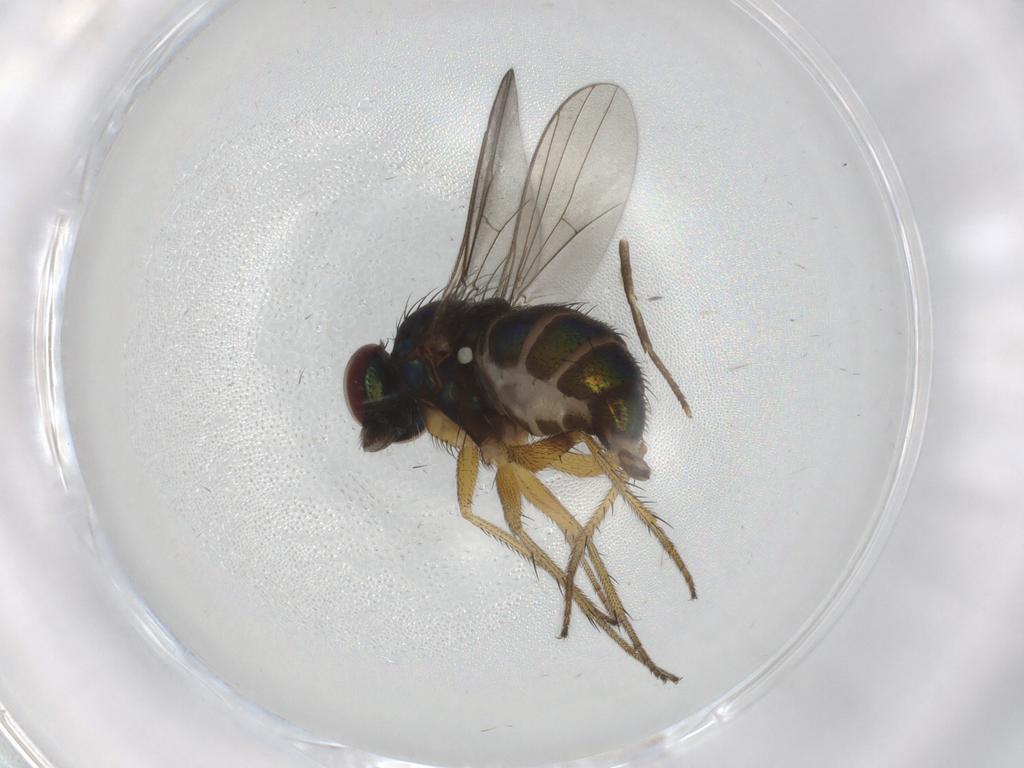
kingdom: Animalia
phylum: Arthropoda
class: Insecta
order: Diptera
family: Dolichopodidae
